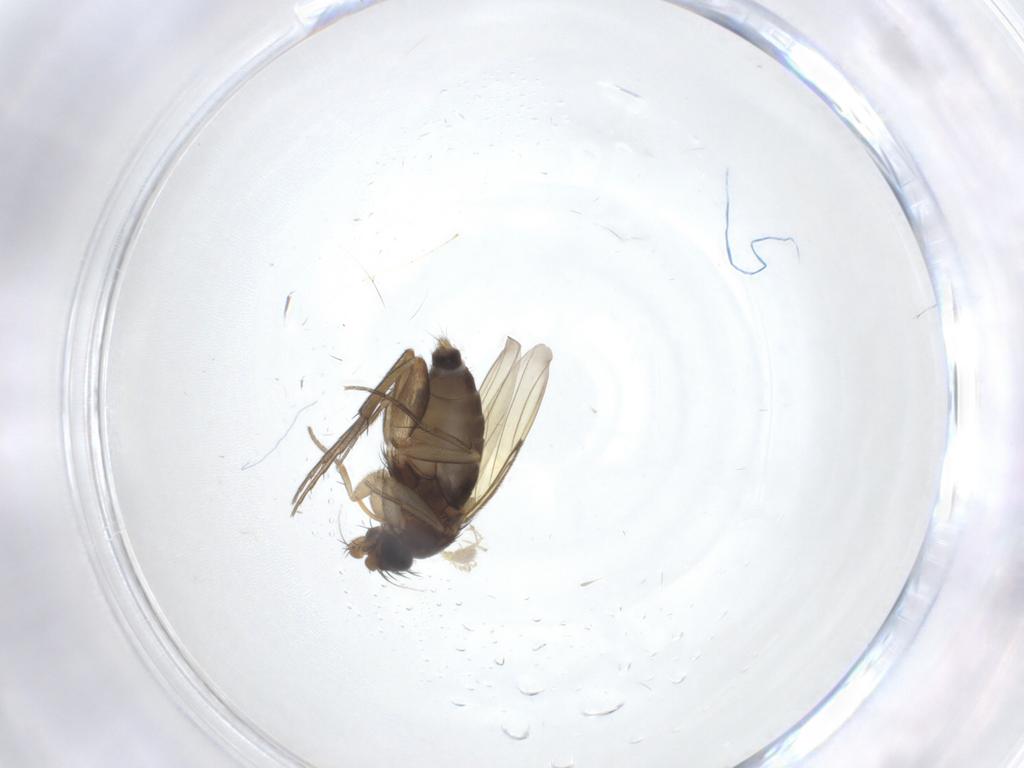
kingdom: Animalia
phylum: Arthropoda
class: Insecta
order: Diptera
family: Phoridae
